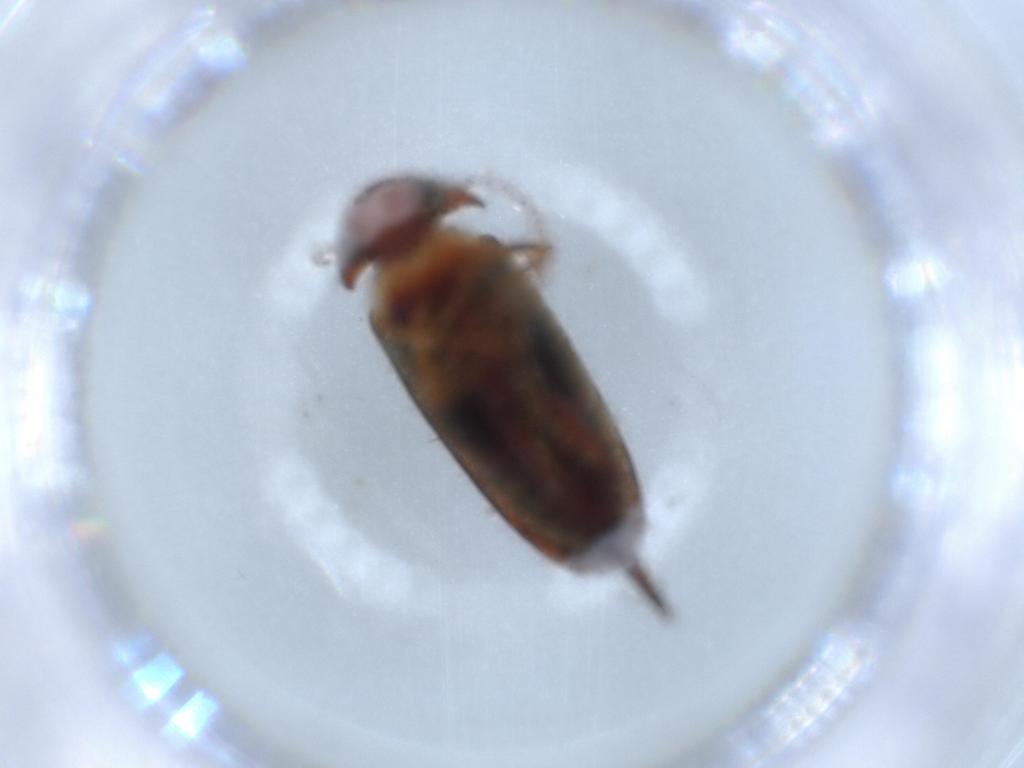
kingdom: Animalia
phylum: Arthropoda
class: Insecta
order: Coleoptera
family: Chrysomelidae
